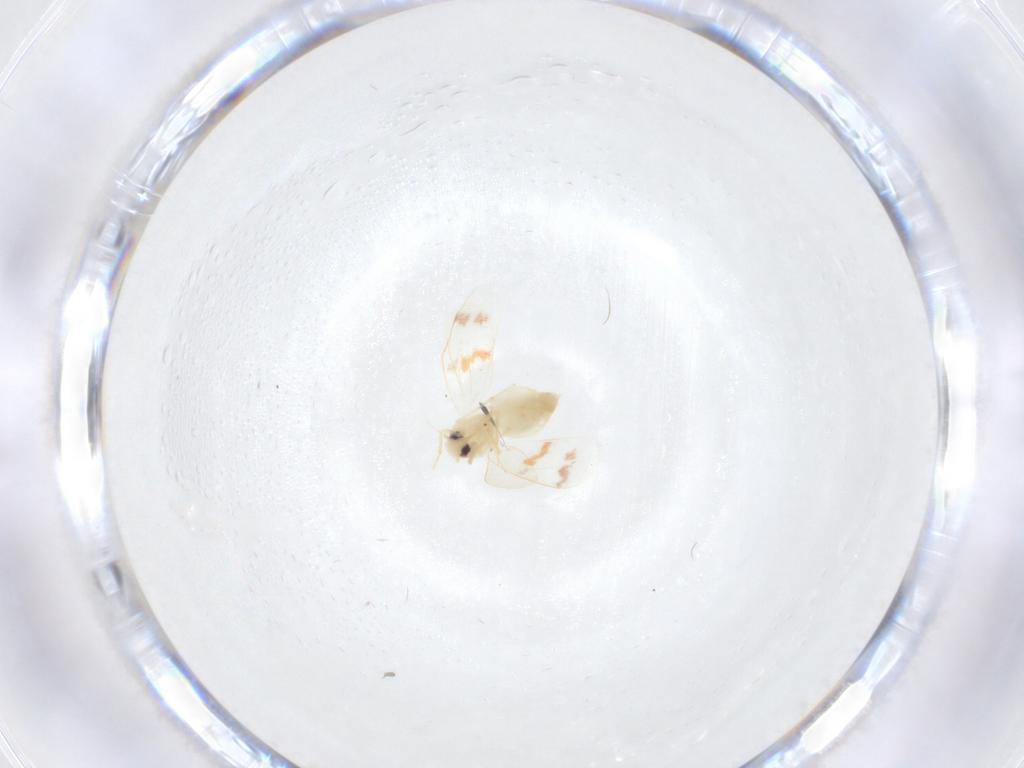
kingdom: Animalia
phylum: Arthropoda
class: Insecta
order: Hemiptera
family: Aleyrodidae
